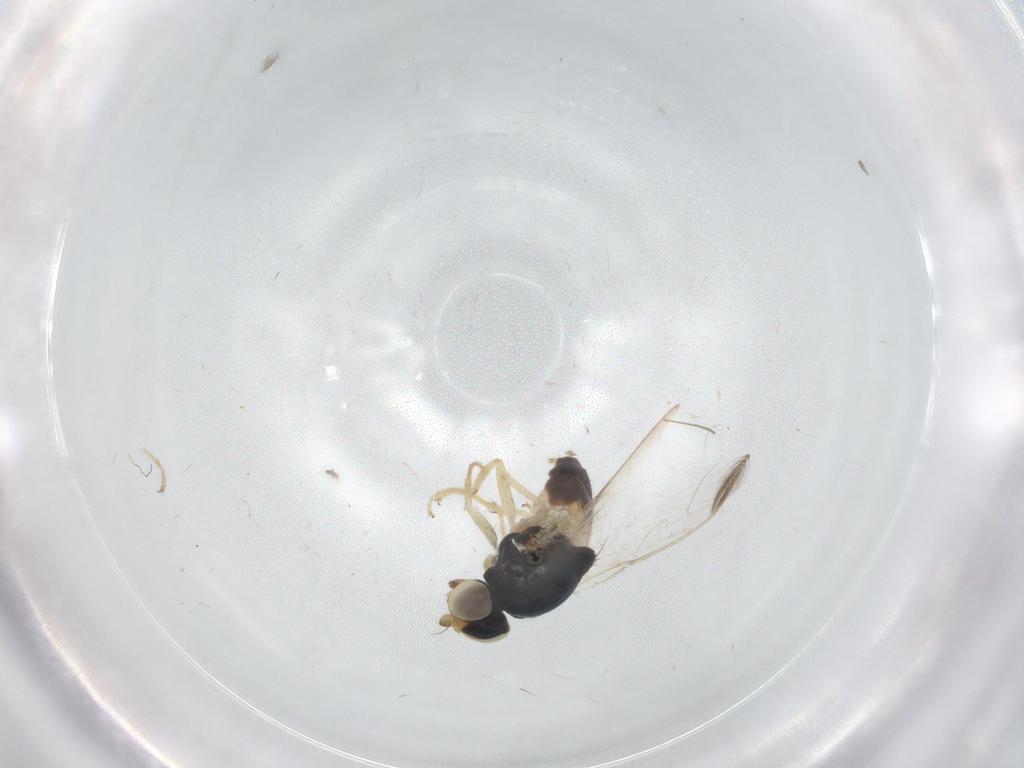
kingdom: Animalia
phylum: Arthropoda
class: Insecta
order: Diptera
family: Chloropidae
